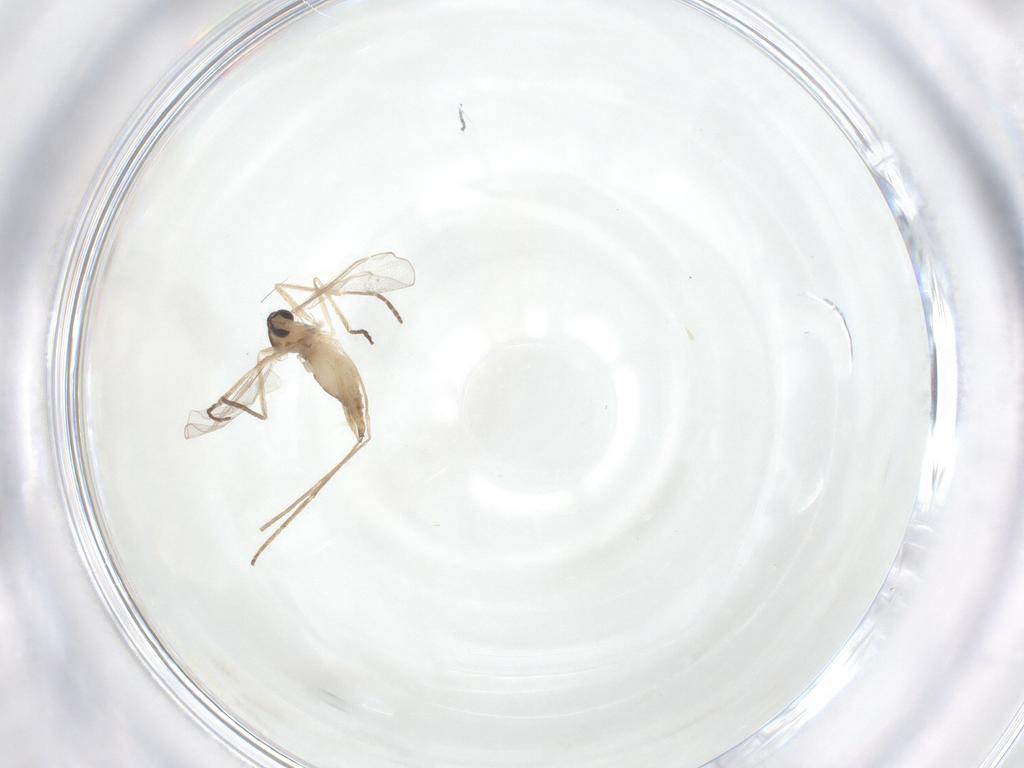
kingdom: Animalia
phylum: Arthropoda
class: Insecta
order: Diptera
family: Cecidomyiidae
